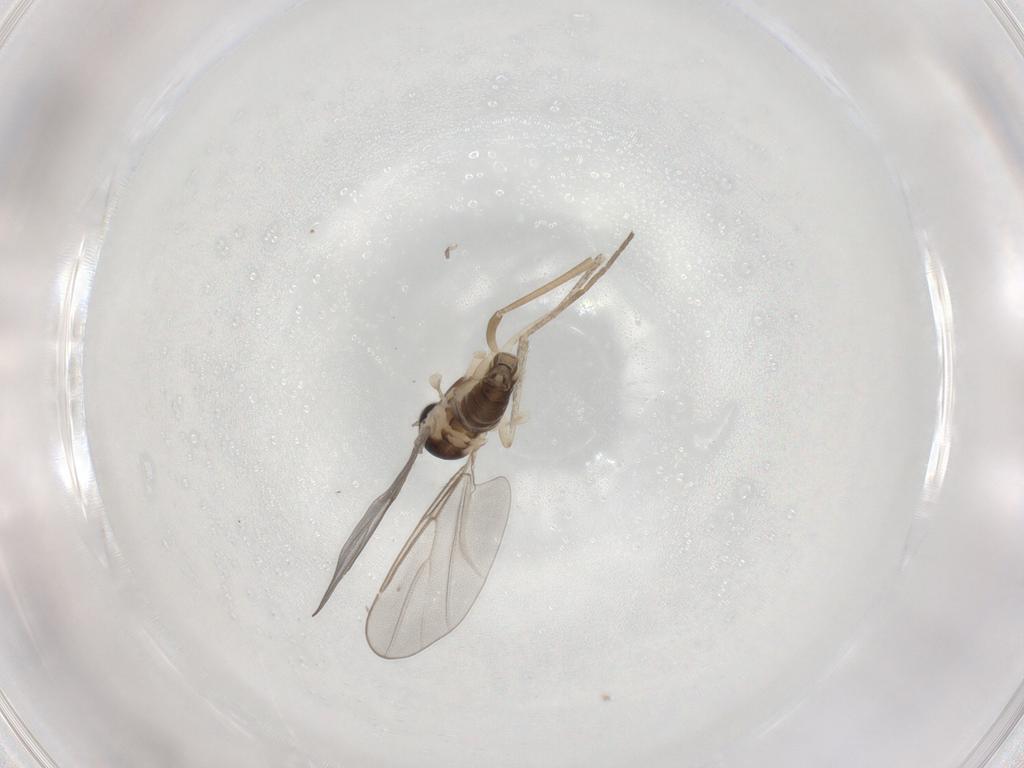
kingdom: Animalia
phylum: Arthropoda
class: Insecta
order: Diptera
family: Cecidomyiidae
